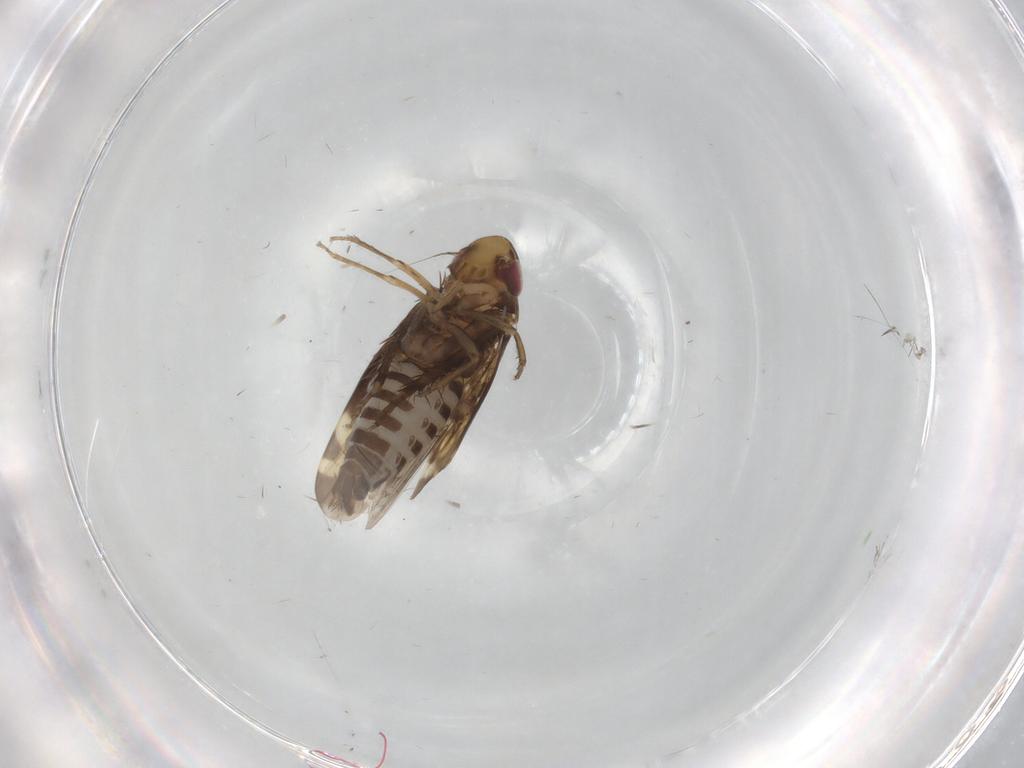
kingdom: Animalia
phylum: Arthropoda
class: Insecta
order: Hemiptera
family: Cicadellidae
